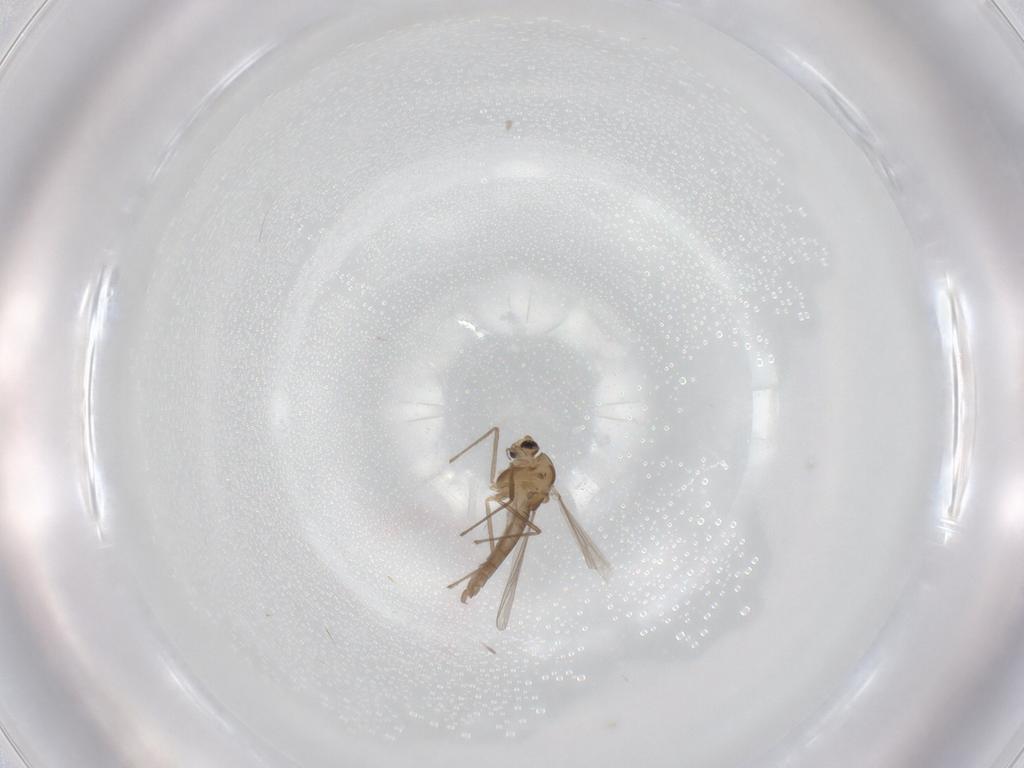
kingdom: Animalia
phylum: Arthropoda
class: Insecta
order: Diptera
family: Chironomidae
